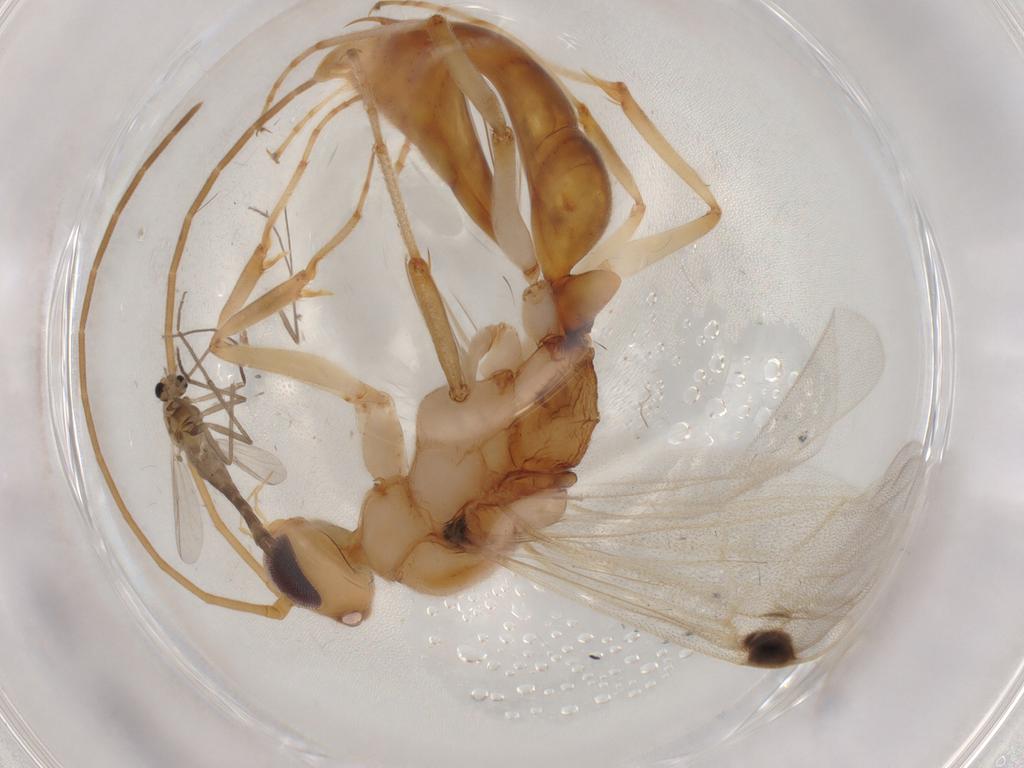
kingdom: Animalia
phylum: Arthropoda
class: Insecta
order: Diptera
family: Chironomidae
